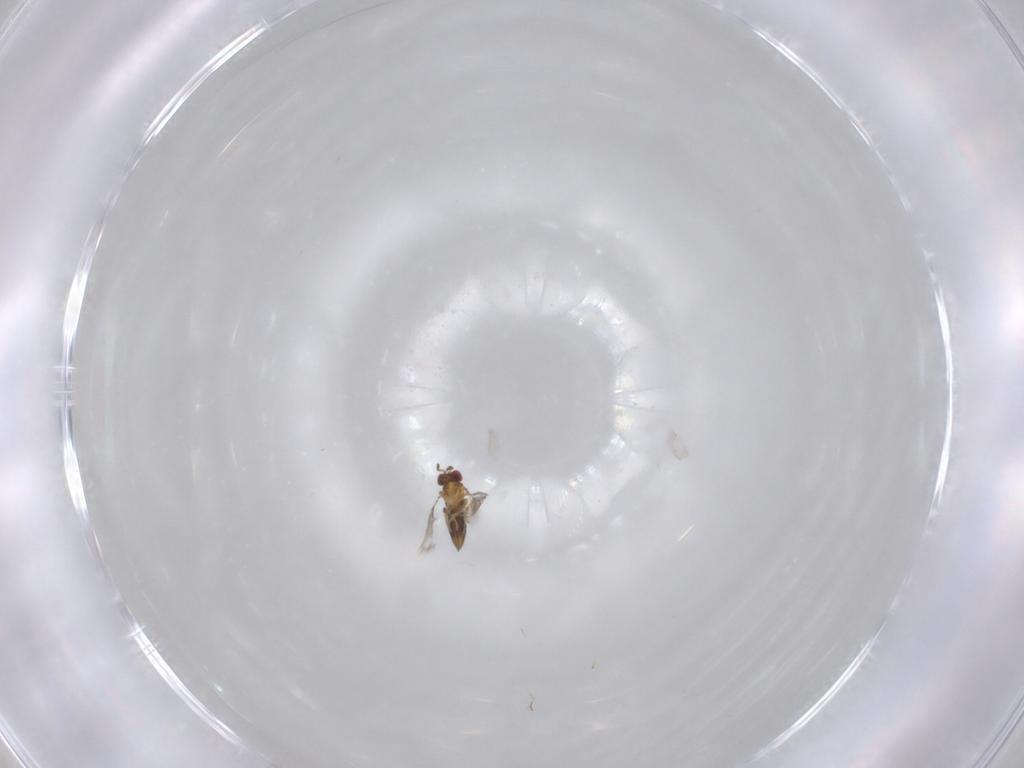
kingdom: Animalia
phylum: Arthropoda
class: Insecta
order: Hymenoptera
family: Trichogrammatidae
